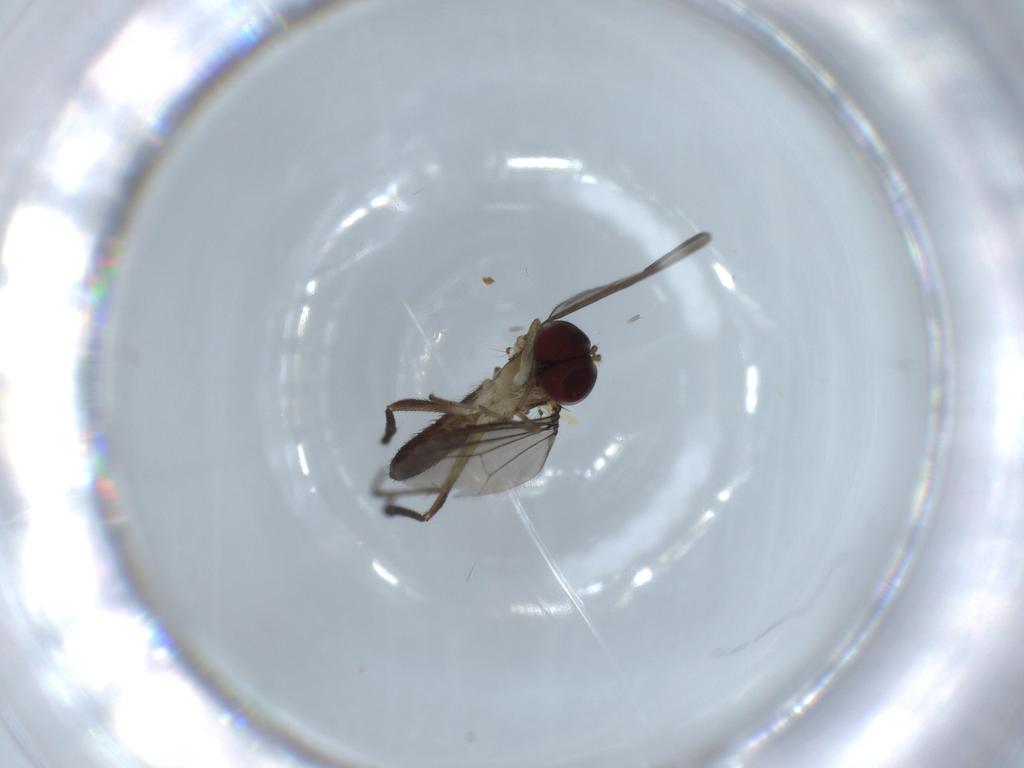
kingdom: Animalia
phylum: Arthropoda
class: Insecta
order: Diptera
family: Dolichopodidae
